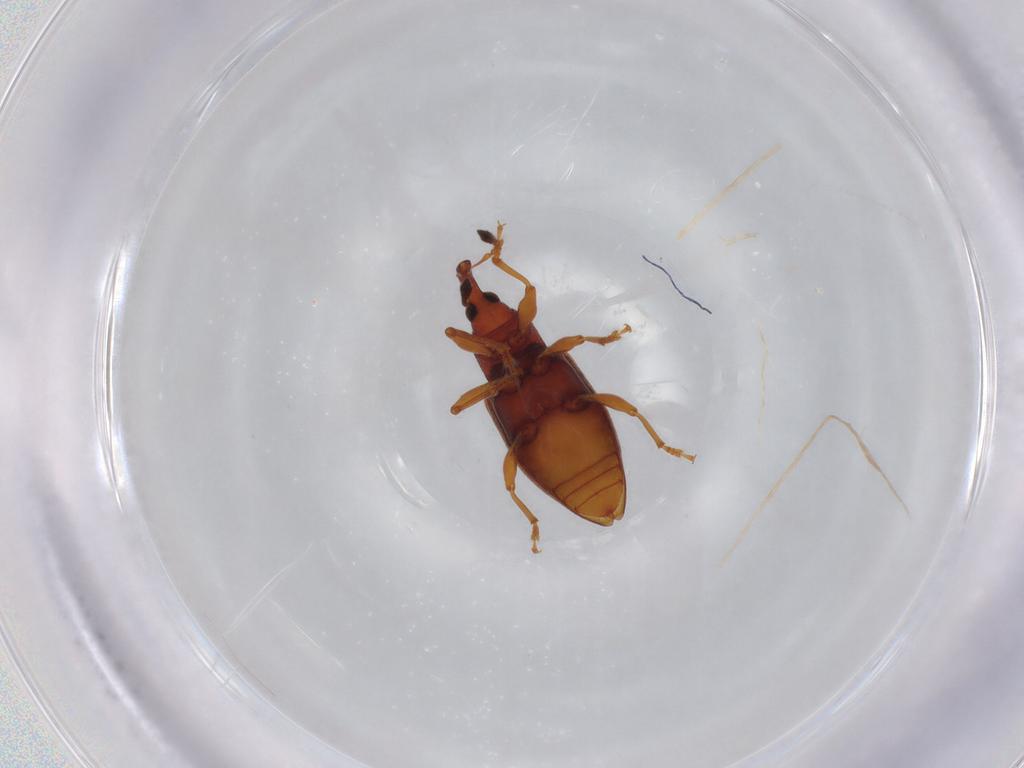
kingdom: Animalia
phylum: Arthropoda
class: Insecta
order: Coleoptera
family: Curculionidae
